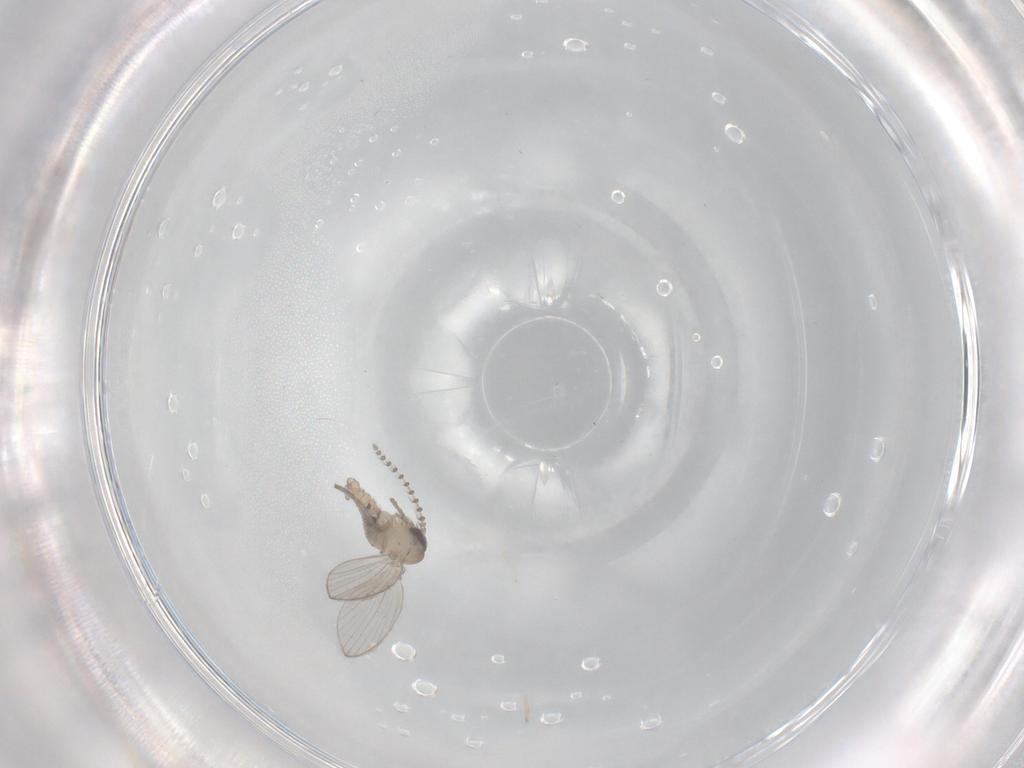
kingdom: Animalia
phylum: Arthropoda
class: Insecta
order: Diptera
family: Psychodidae
